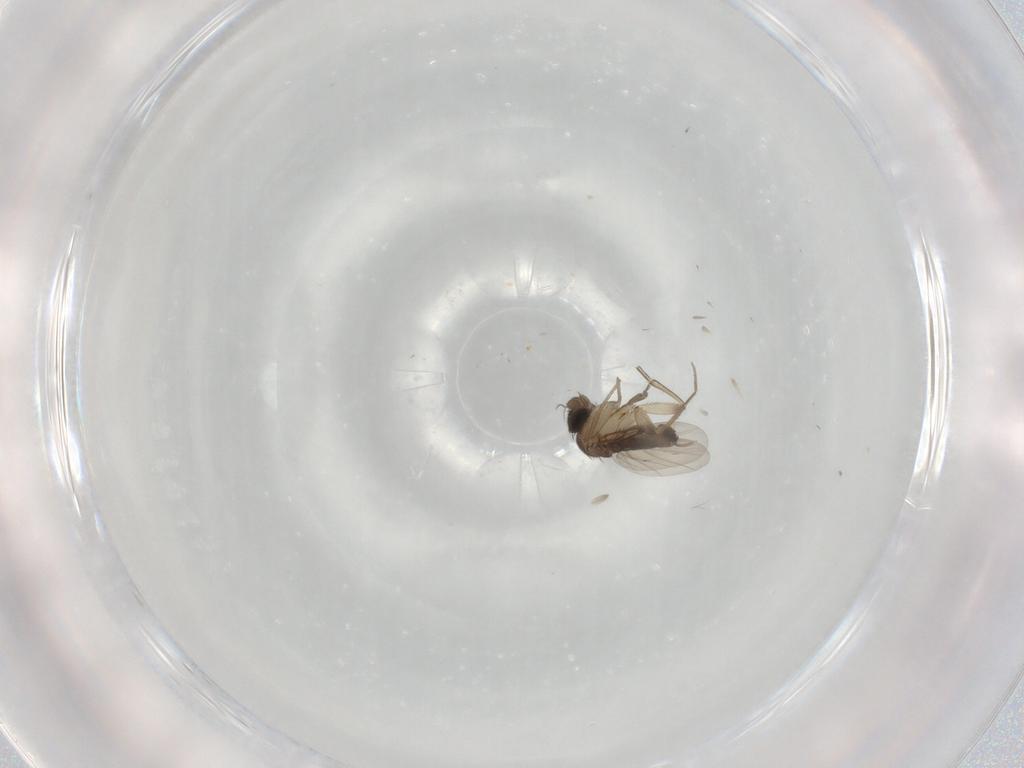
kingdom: Animalia
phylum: Arthropoda
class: Insecta
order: Diptera
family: Phoridae
